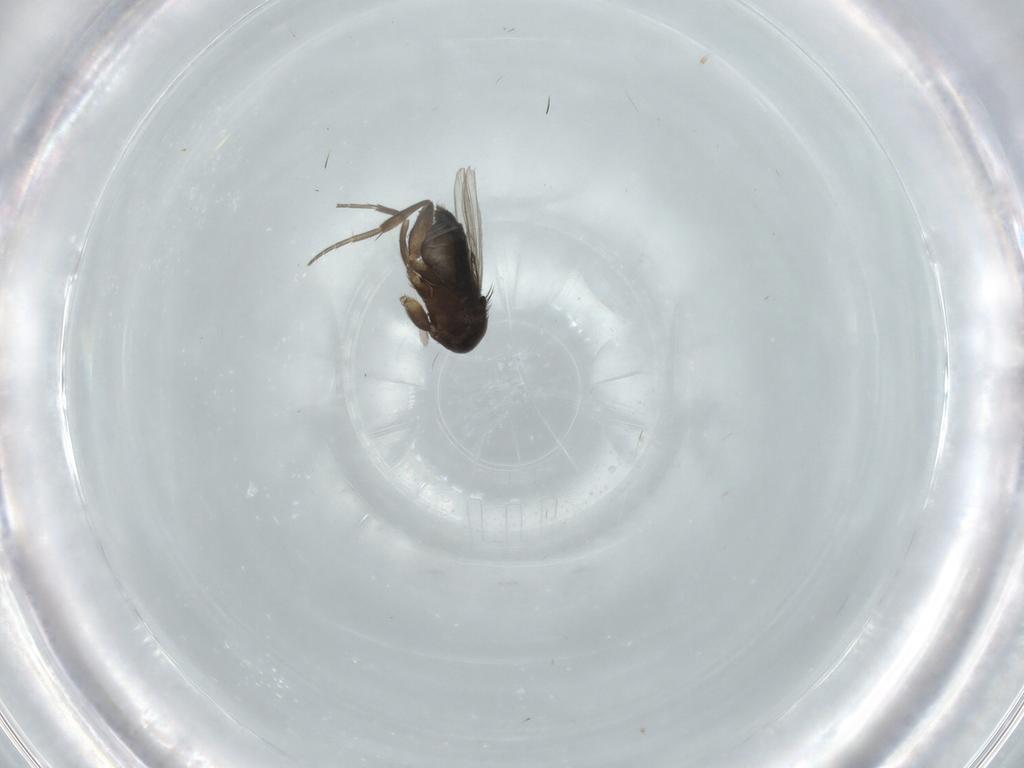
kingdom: Animalia
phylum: Arthropoda
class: Insecta
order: Diptera
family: Phoridae
